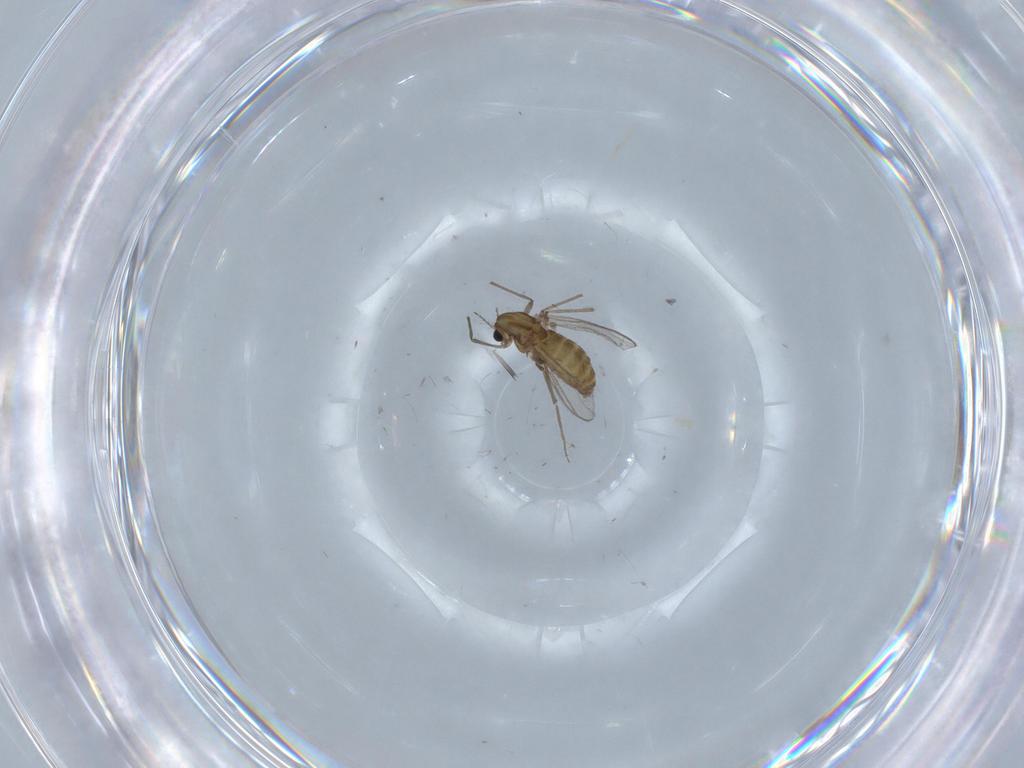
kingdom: Animalia
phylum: Arthropoda
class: Insecta
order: Diptera
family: Chironomidae
